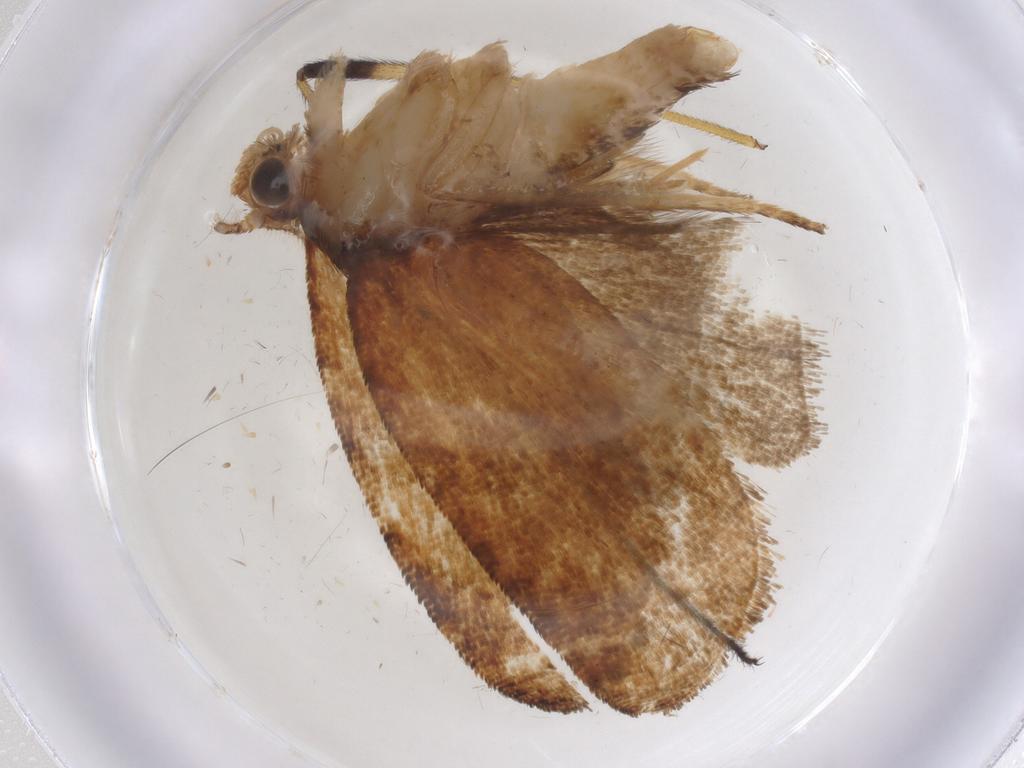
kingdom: Animalia
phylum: Arthropoda
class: Insecta
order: Lepidoptera
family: Tortricidae
